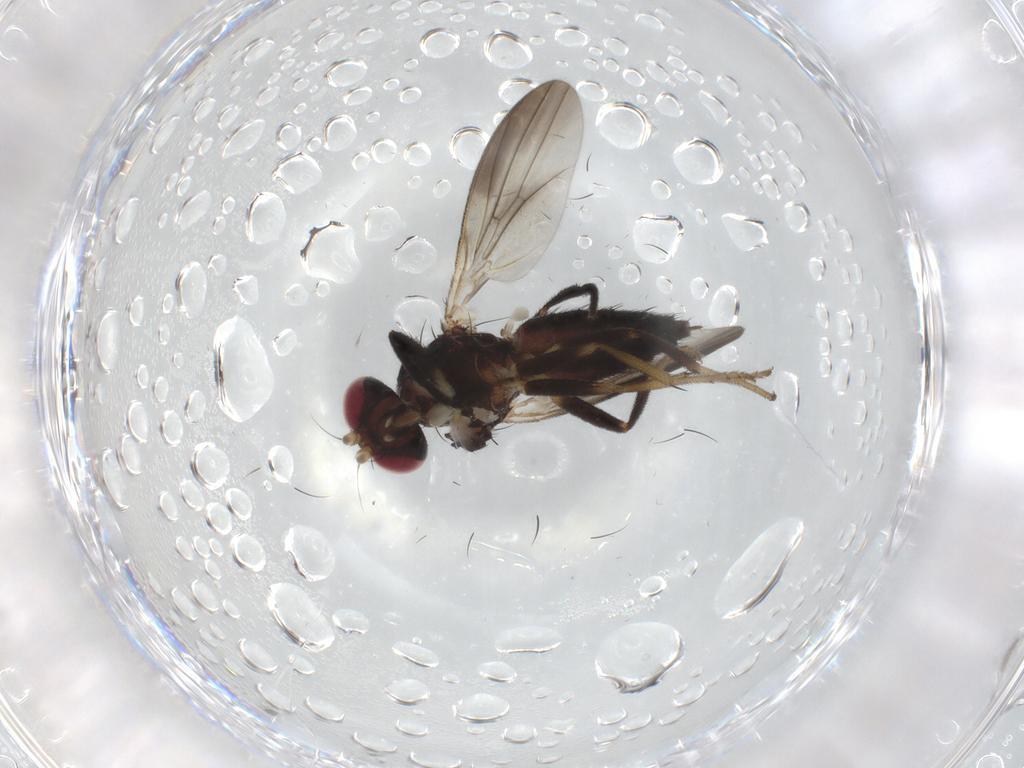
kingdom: Animalia
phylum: Arthropoda
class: Insecta
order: Diptera
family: Clusiidae
